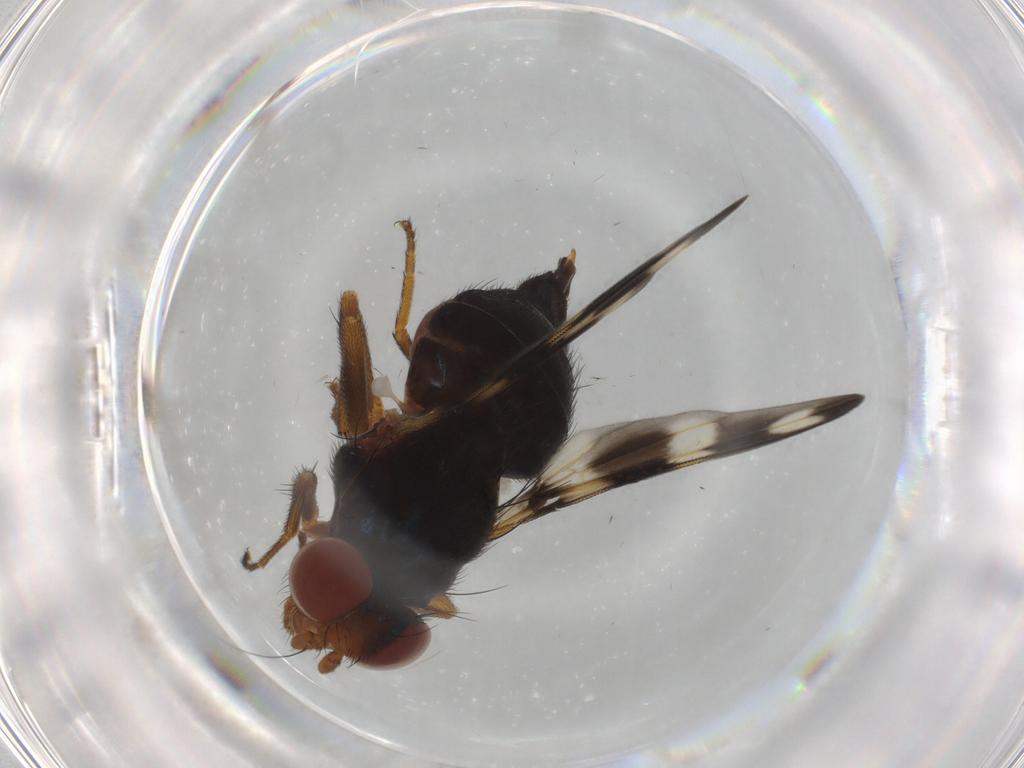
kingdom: Animalia
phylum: Arthropoda
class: Insecta
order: Diptera
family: Ulidiidae
